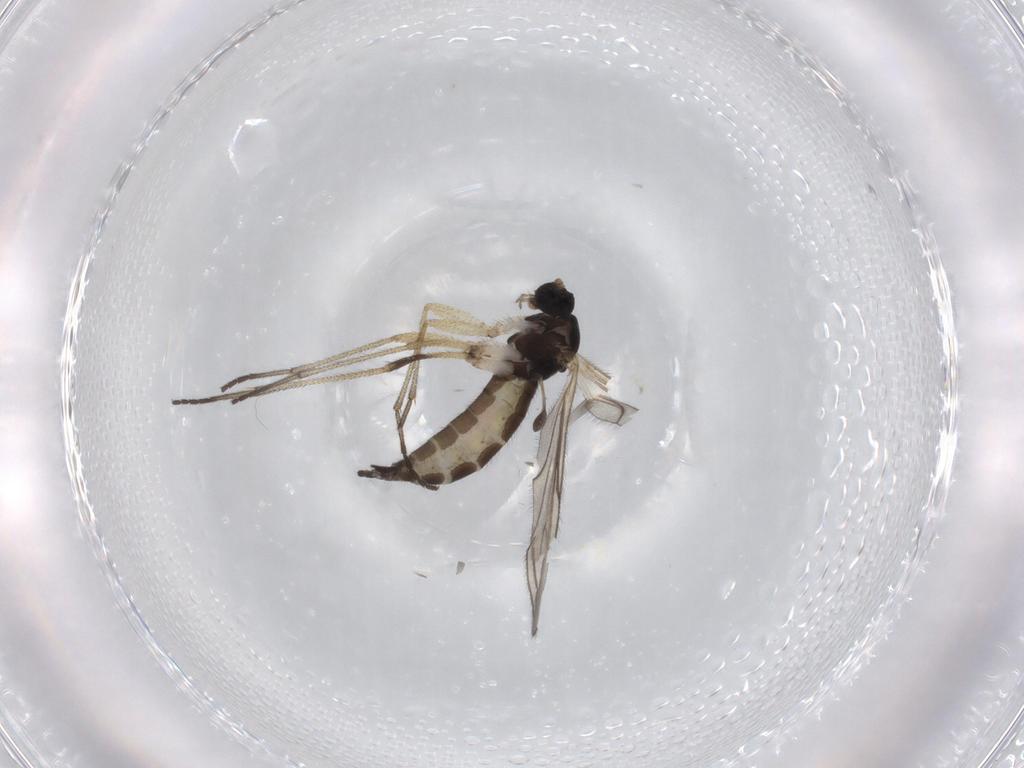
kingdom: Animalia
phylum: Arthropoda
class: Insecta
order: Diptera
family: Sciaridae
